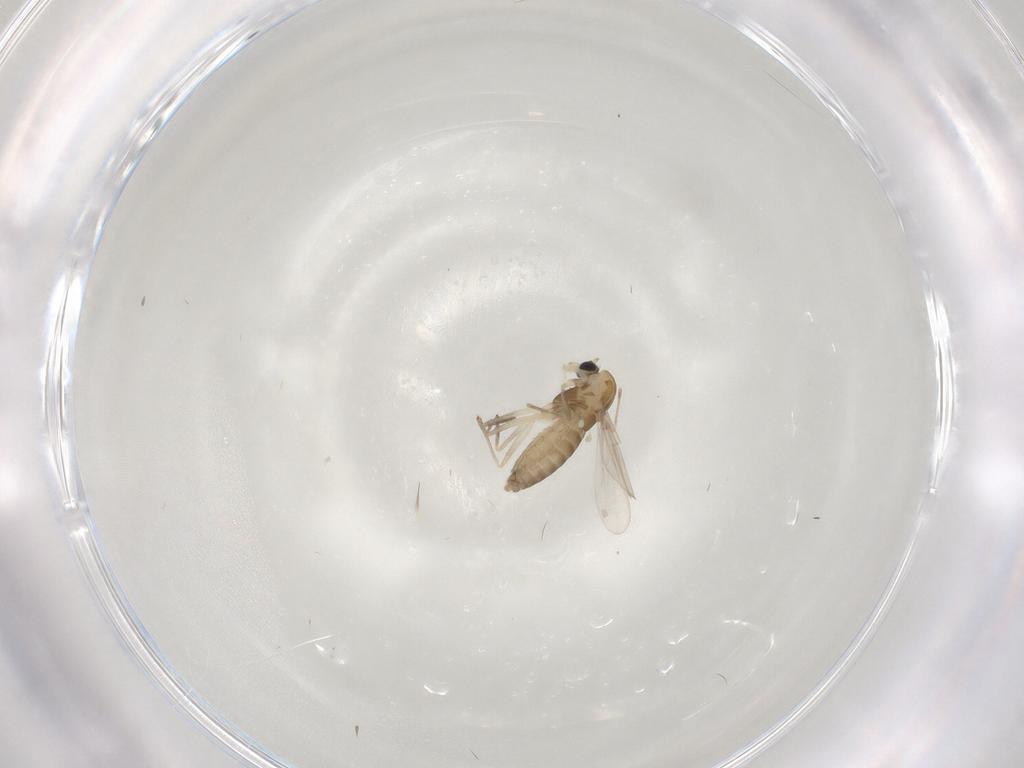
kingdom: Animalia
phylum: Arthropoda
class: Insecta
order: Diptera
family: Chironomidae
